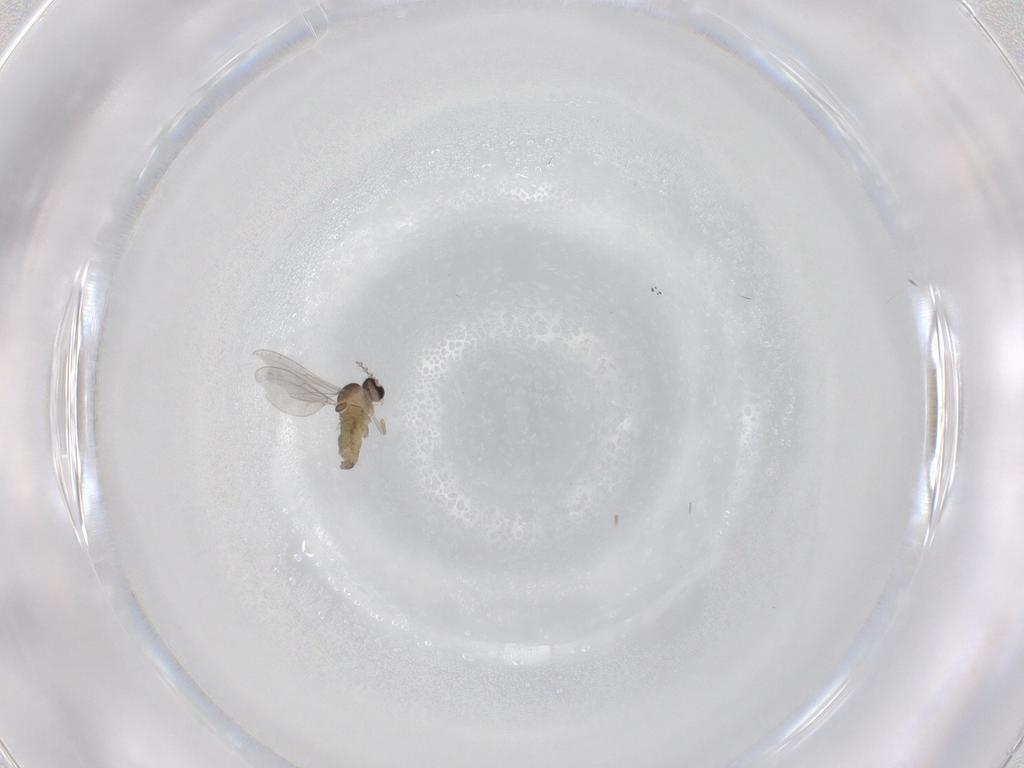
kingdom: Animalia
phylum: Arthropoda
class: Insecta
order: Diptera
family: Cecidomyiidae
